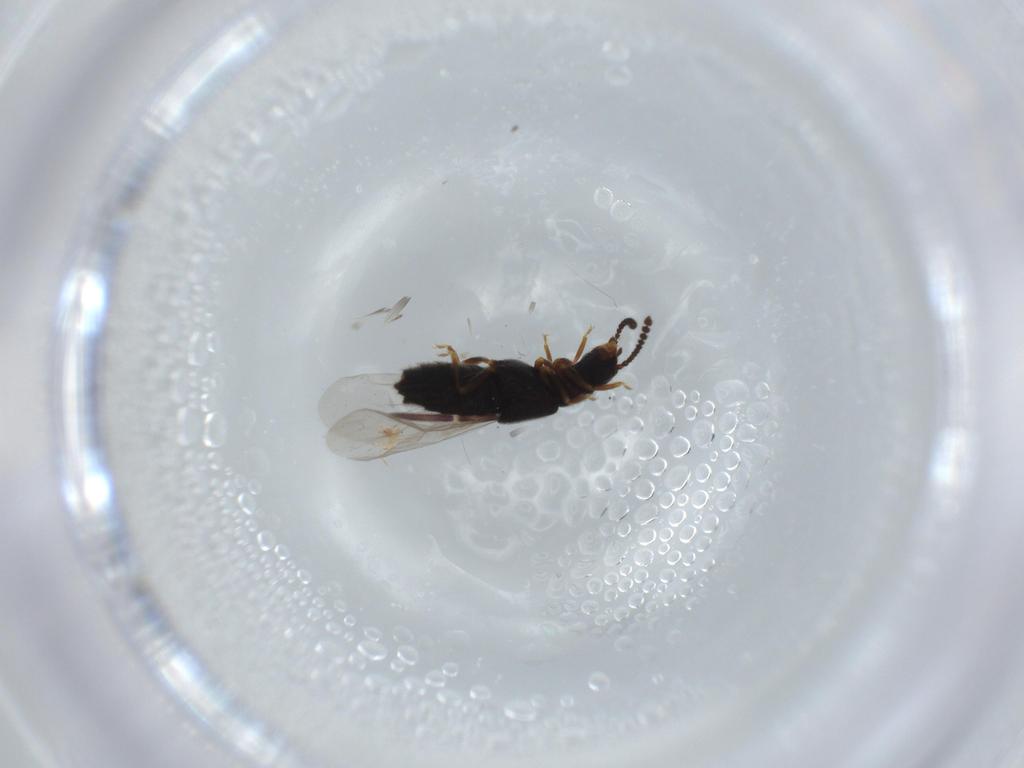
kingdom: Animalia
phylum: Arthropoda
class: Insecta
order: Coleoptera
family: Staphylinidae
